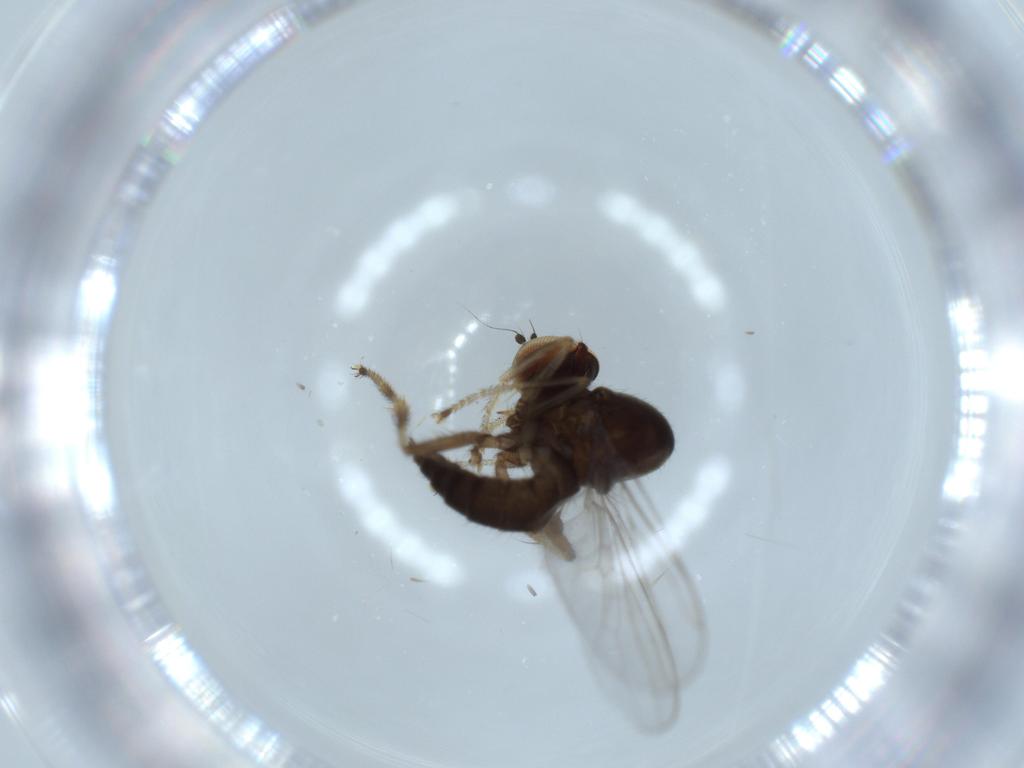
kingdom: Animalia
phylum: Arthropoda
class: Insecta
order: Diptera
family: Hybotidae
